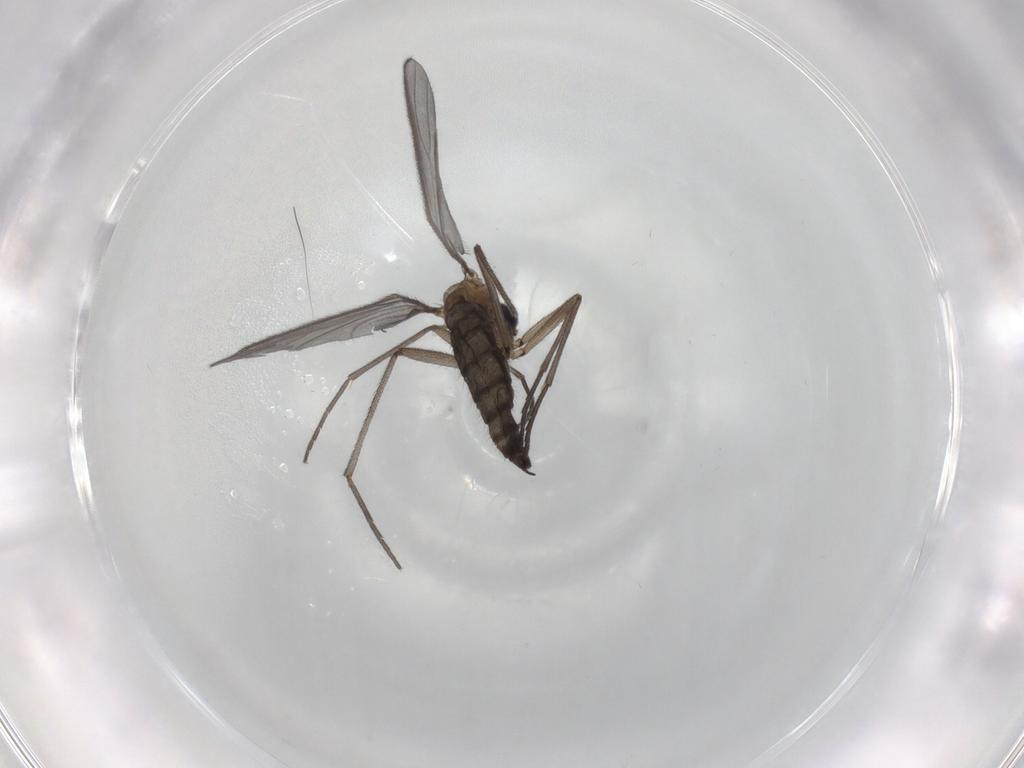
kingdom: Animalia
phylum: Arthropoda
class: Insecta
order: Diptera
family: Sciaridae
